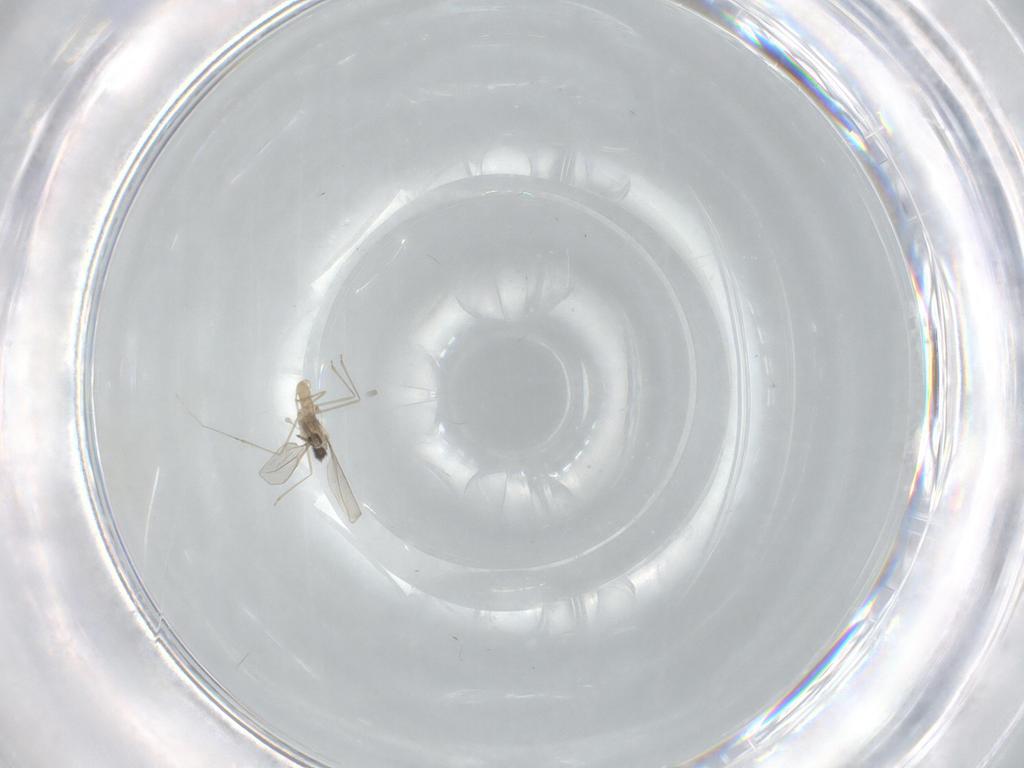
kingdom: Animalia
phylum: Arthropoda
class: Insecta
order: Diptera
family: Cecidomyiidae
